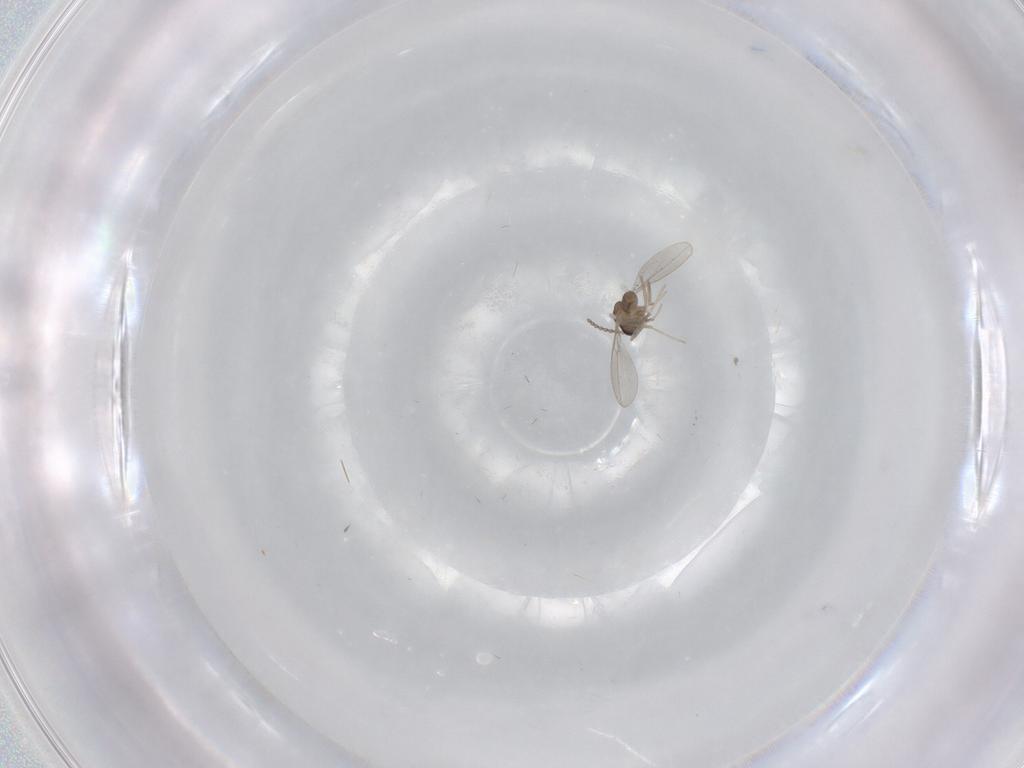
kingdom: Animalia
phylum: Arthropoda
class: Insecta
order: Diptera
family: Cecidomyiidae
